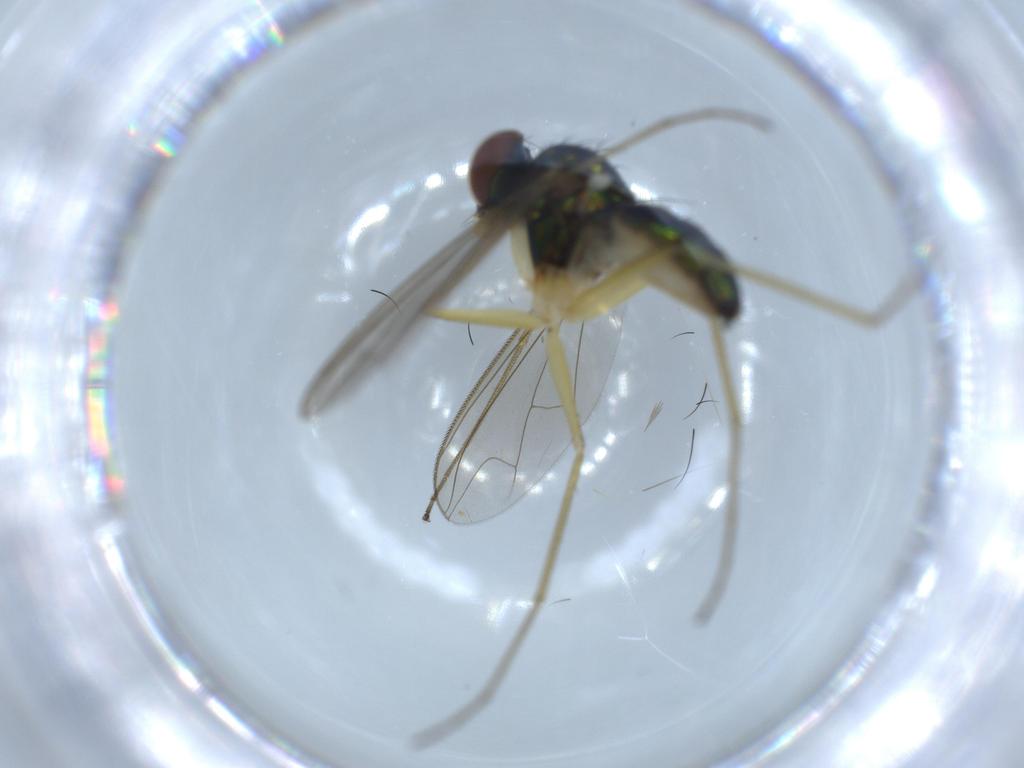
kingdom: Animalia
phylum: Arthropoda
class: Insecta
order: Diptera
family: Dolichopodidae
